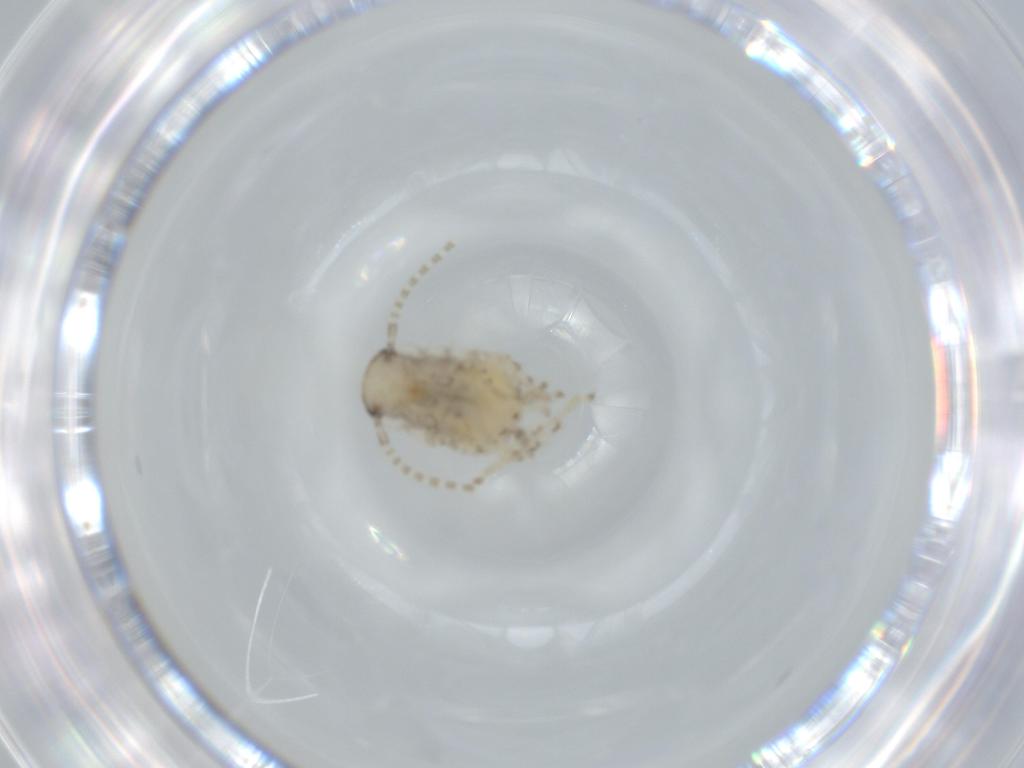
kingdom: Animalia
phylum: Arthropoda
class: Insecta
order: Blattodea
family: Ectobiidae
